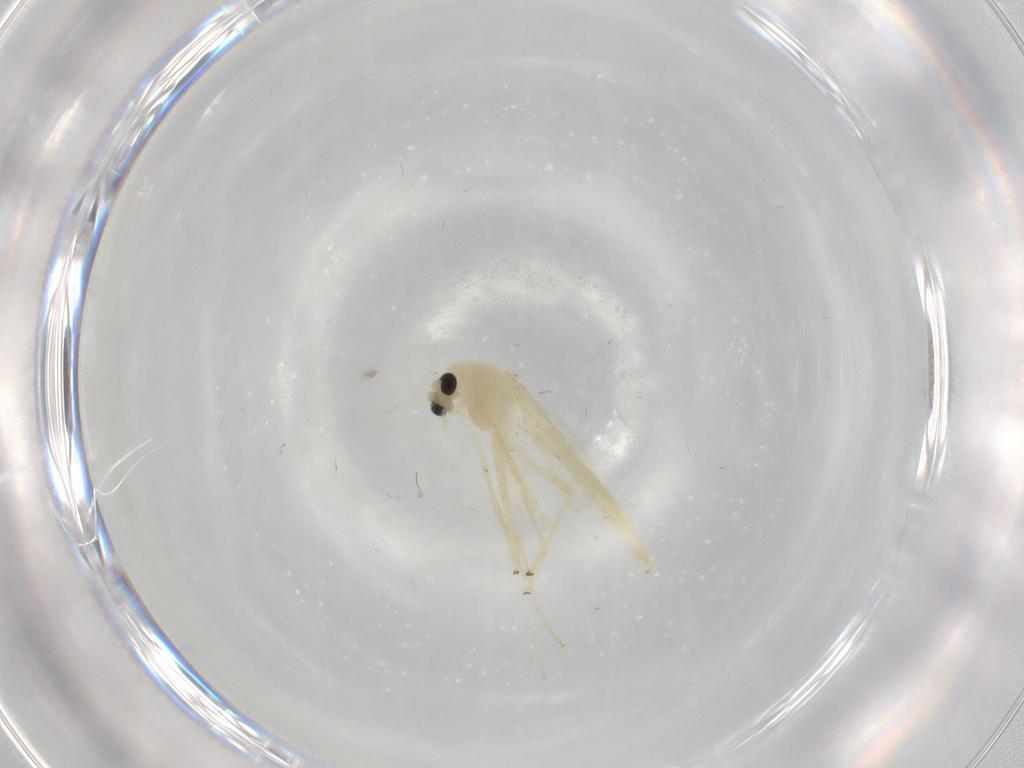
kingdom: Animalia
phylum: Arthropoda
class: Insecta
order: Diptera
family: Chironomidae
